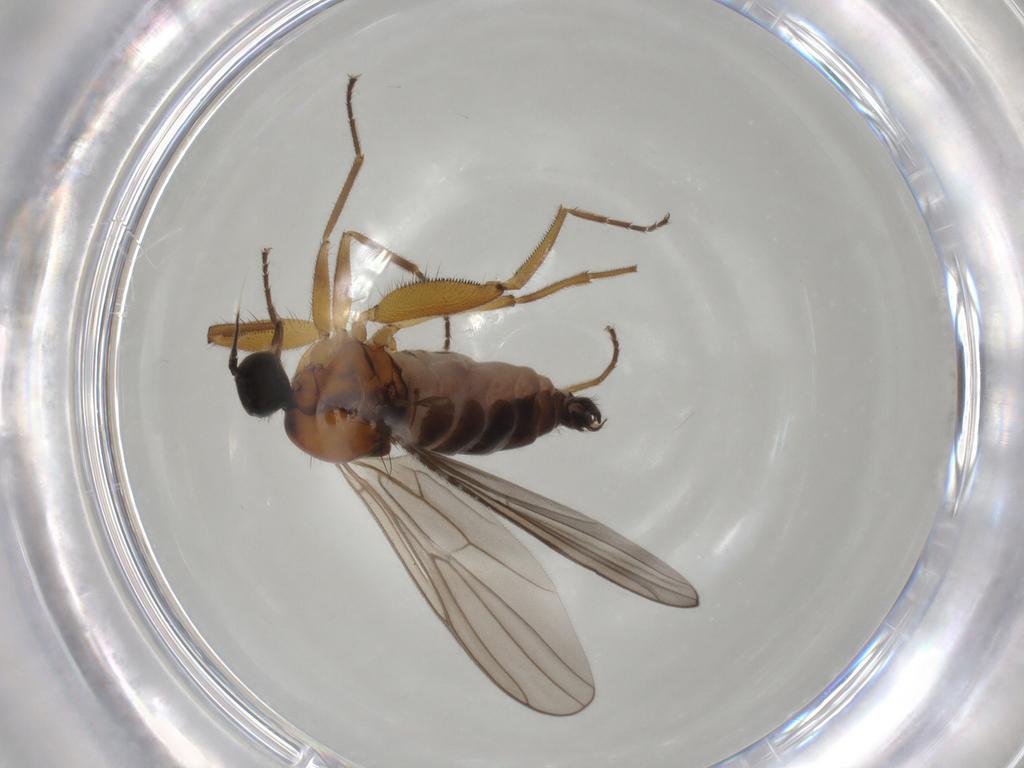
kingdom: Animalia
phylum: Arthropoda
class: Insecta
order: Diptera
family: Hybotidae
